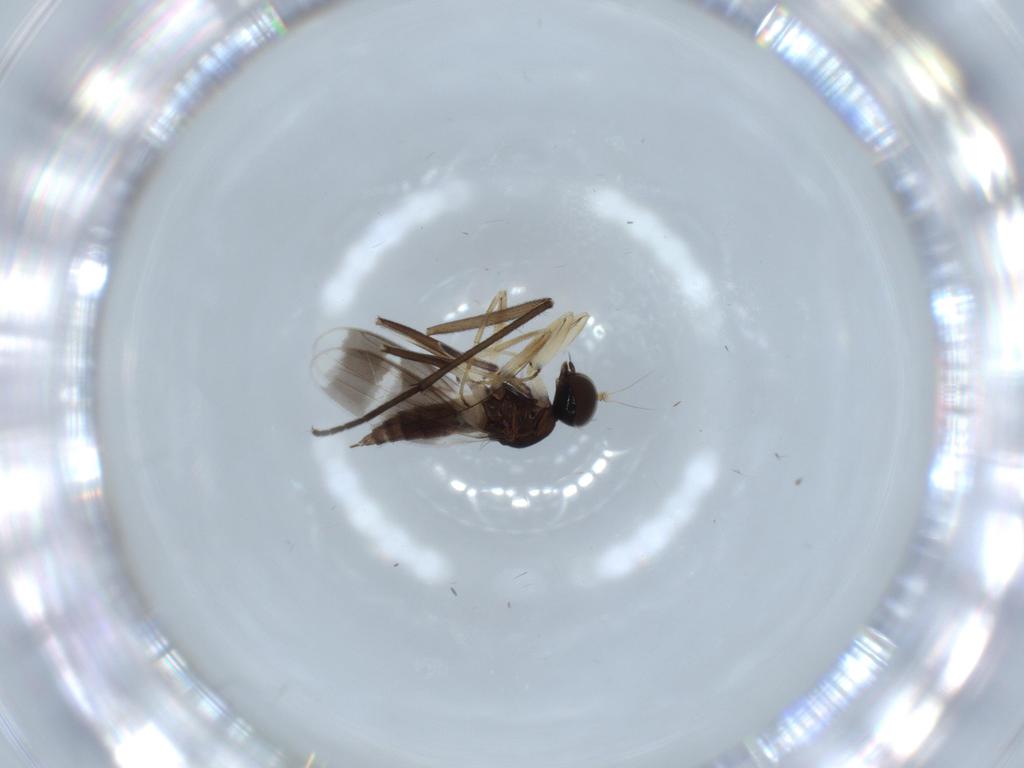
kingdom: Animalia
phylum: Arthropoda
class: Insecta
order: Diptera
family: Hybotidae
